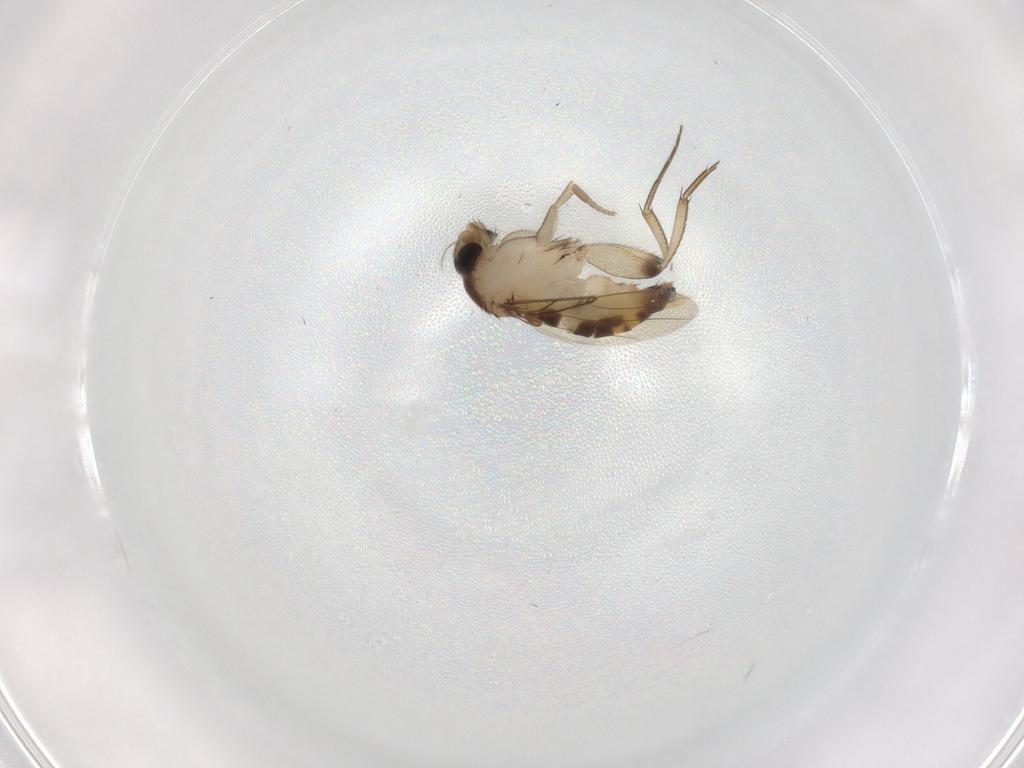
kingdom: Animalia
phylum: Arthropoda
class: Insecta
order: Diptera
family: Phoridae
